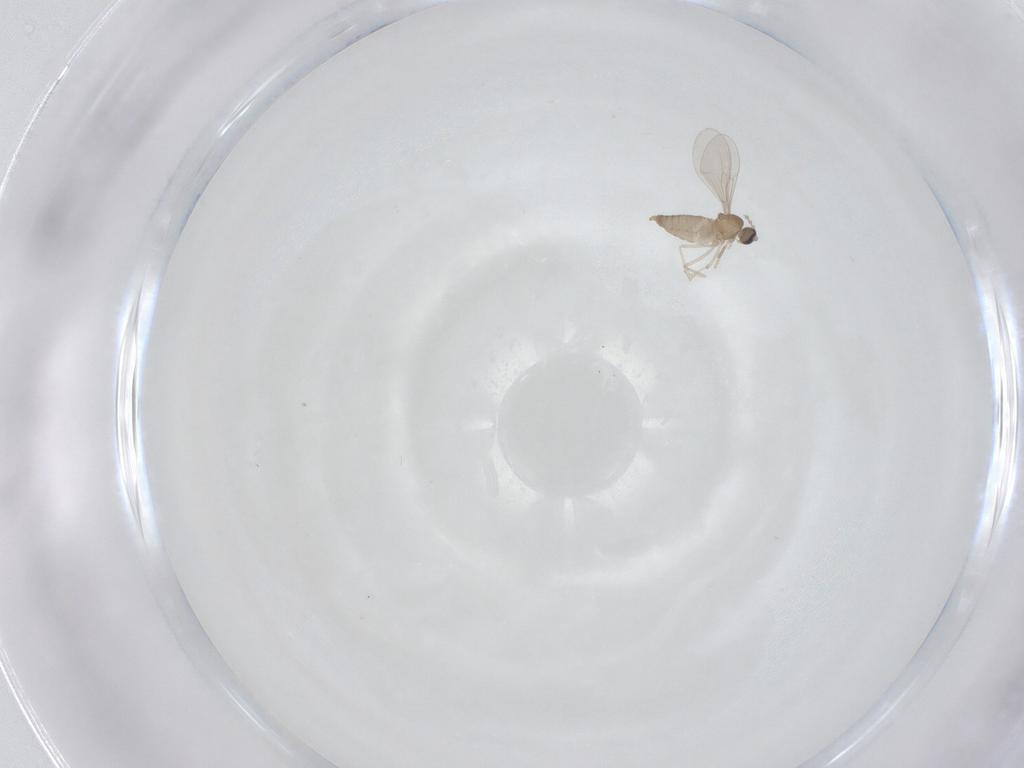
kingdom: Animalia
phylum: Arthropoda
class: Insecta
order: Diptera
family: Cecidomyiidae
